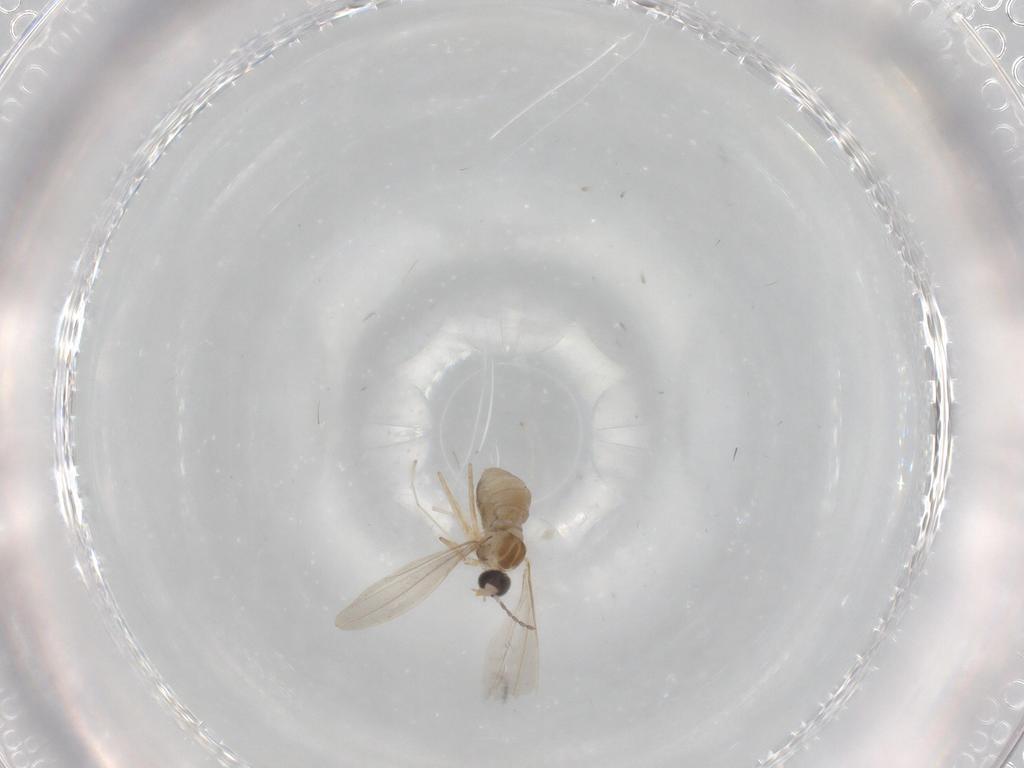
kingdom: Animalia
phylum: Arthropoda
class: Insecta
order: Diptera
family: Cecidomyiidae
